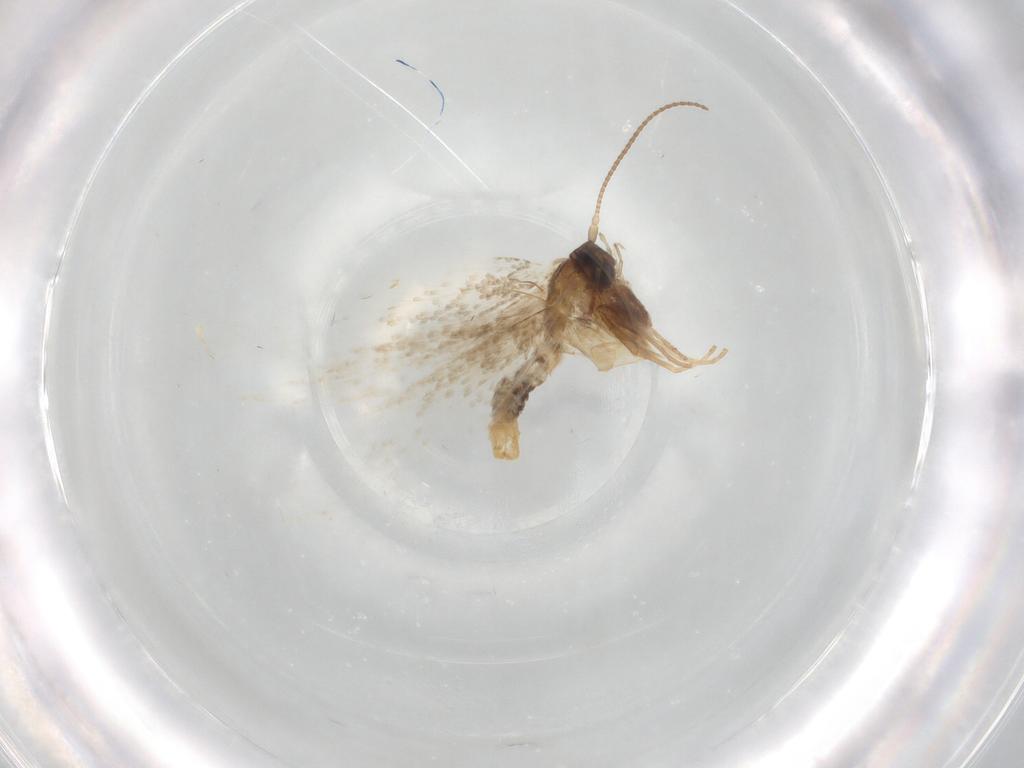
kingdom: Animalia
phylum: Arthropoda
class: Insecta
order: Lepidoptera
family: Nepticulidae
